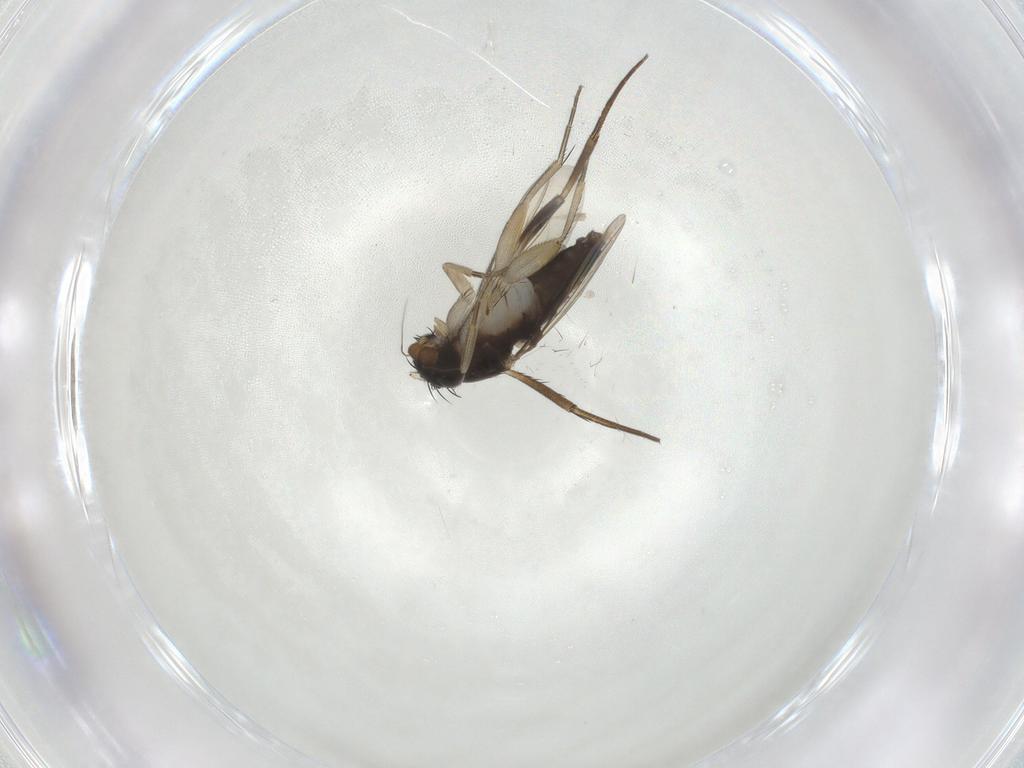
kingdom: Animalia
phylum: Arthropoda
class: Insecta
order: Diptera
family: Phoridae
